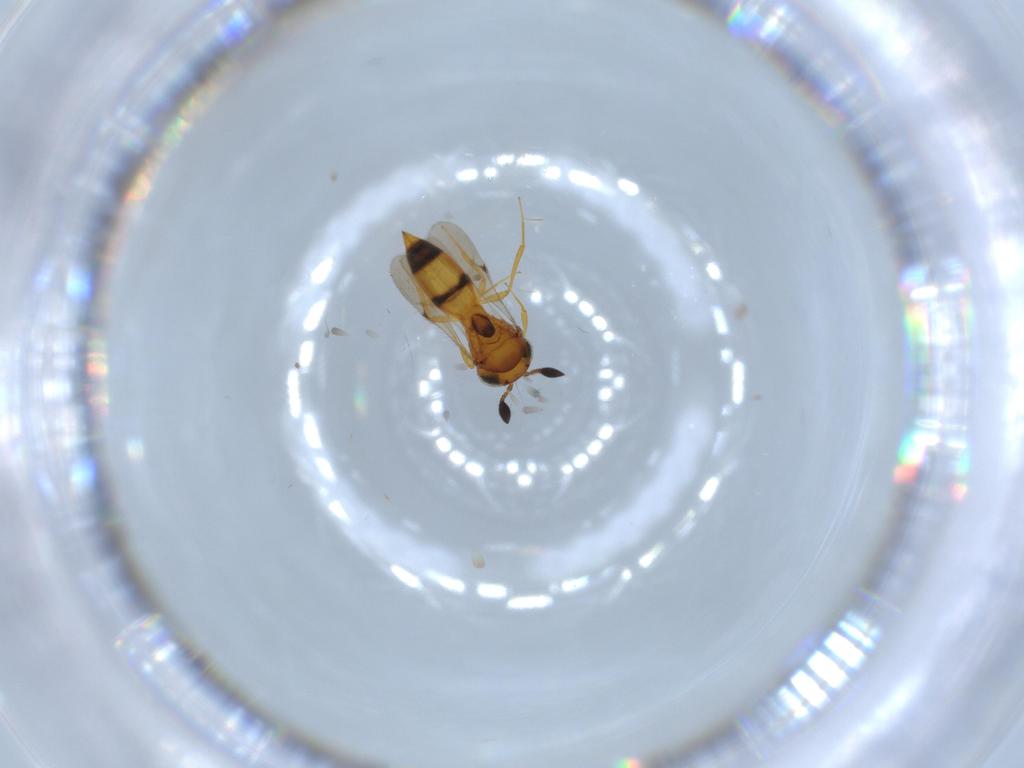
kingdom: Animalia
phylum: Arthropoda
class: Insecta
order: Hymenoptera
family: Scelionidae
